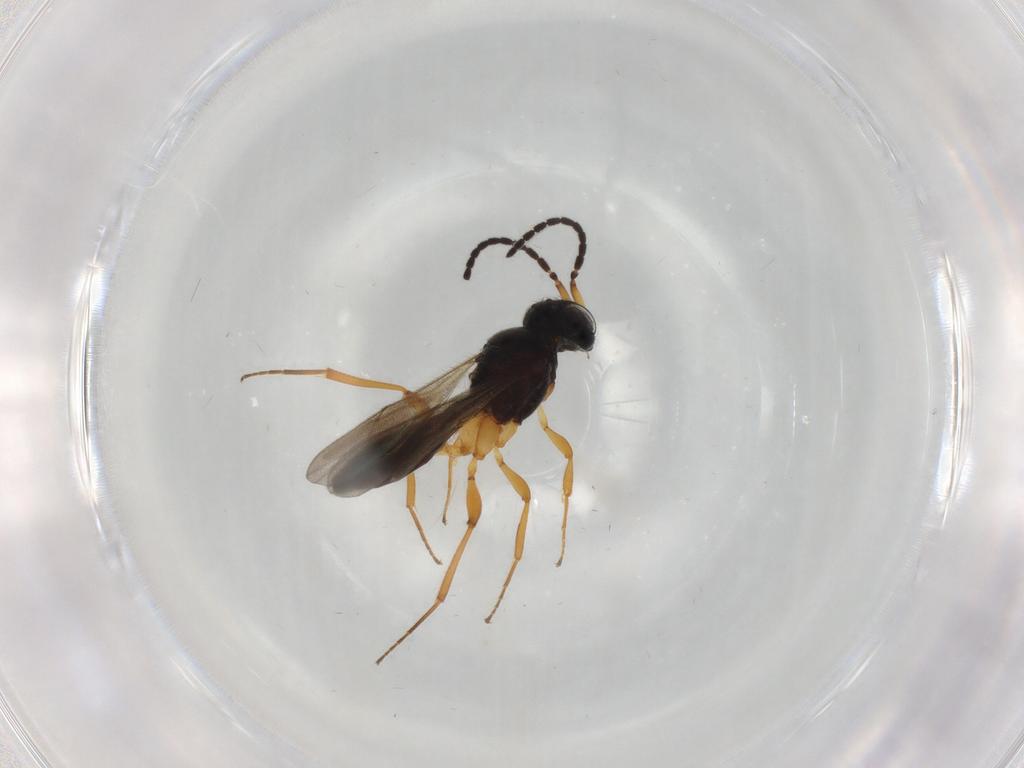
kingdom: Animalia
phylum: Arthropoda
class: Insecta
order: Hymenoptera
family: Scelionidae
